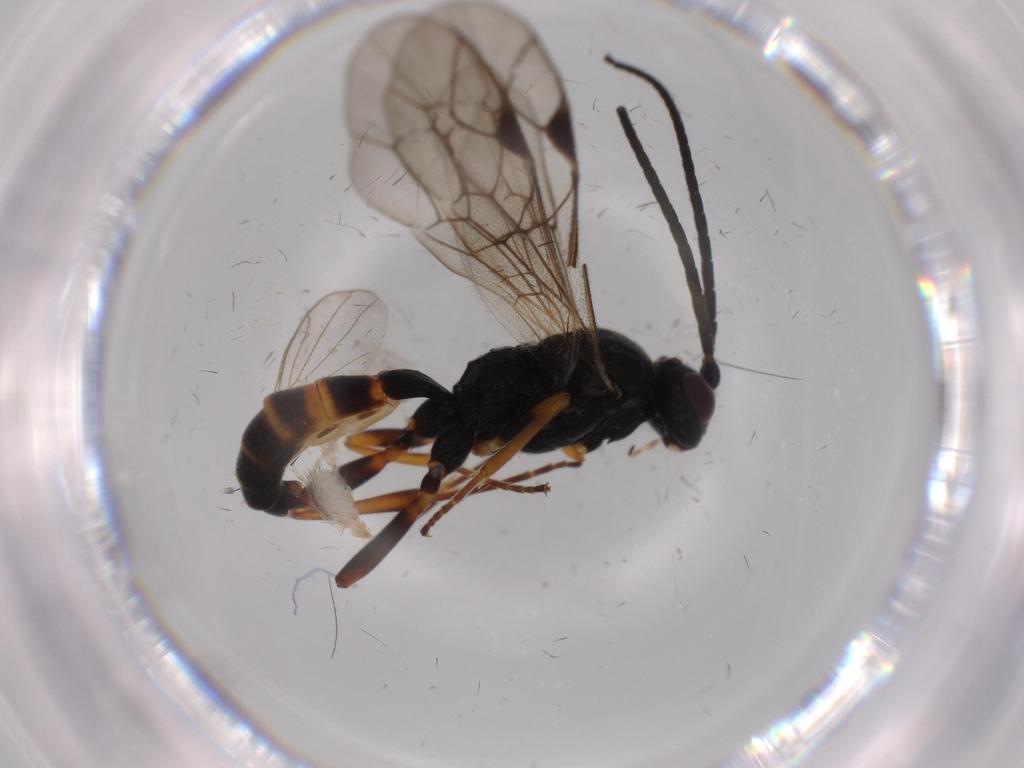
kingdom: Animalia
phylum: Arthropoda
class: Insecta
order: Hymenoptera
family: Ichneumonidae
